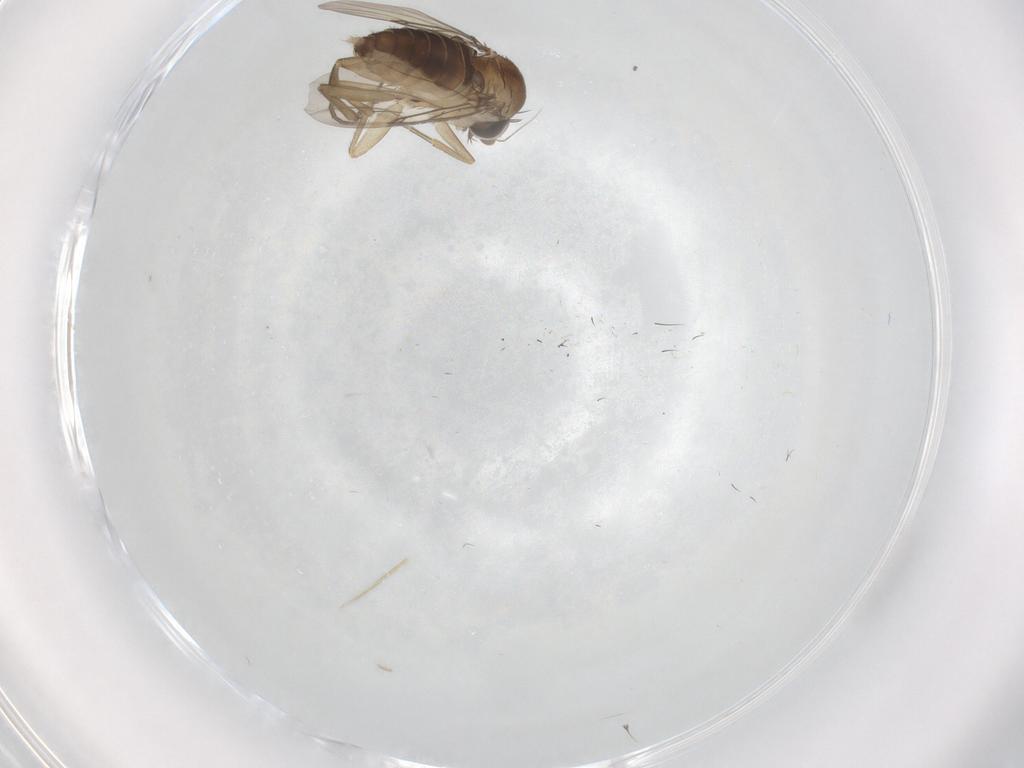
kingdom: Animalia
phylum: Arthropoda
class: Insecta
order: Diptera
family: Phoridae
